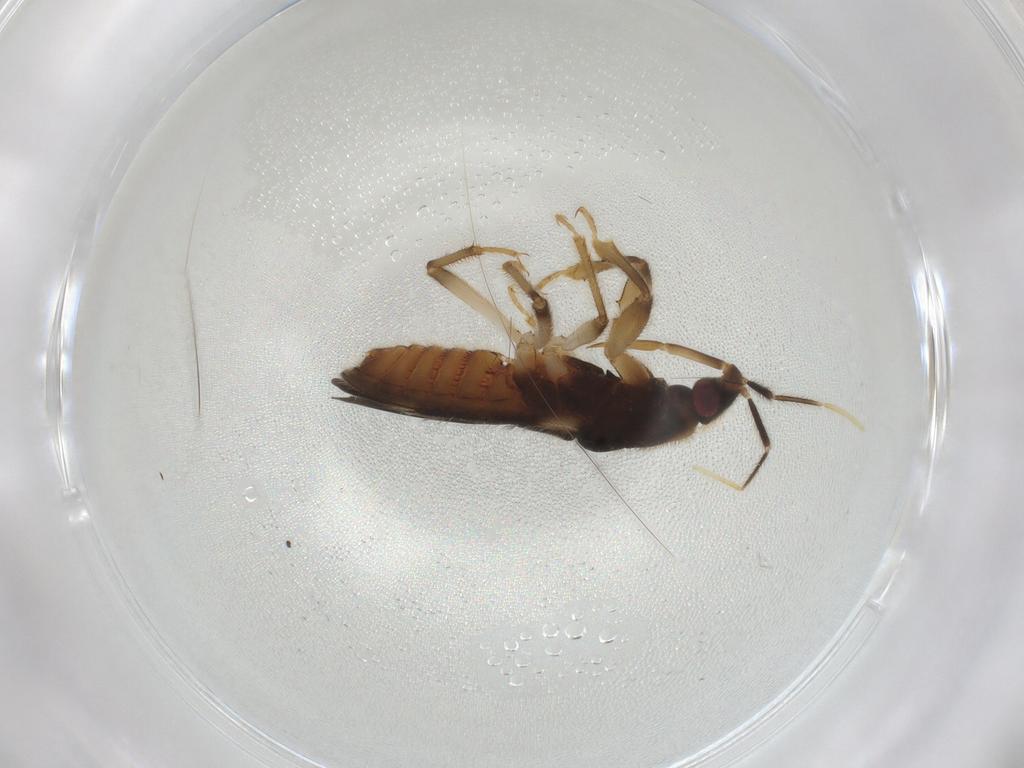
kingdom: Animalia
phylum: Arthropoda
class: Insecta
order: Hemiptera
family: Nabidae
